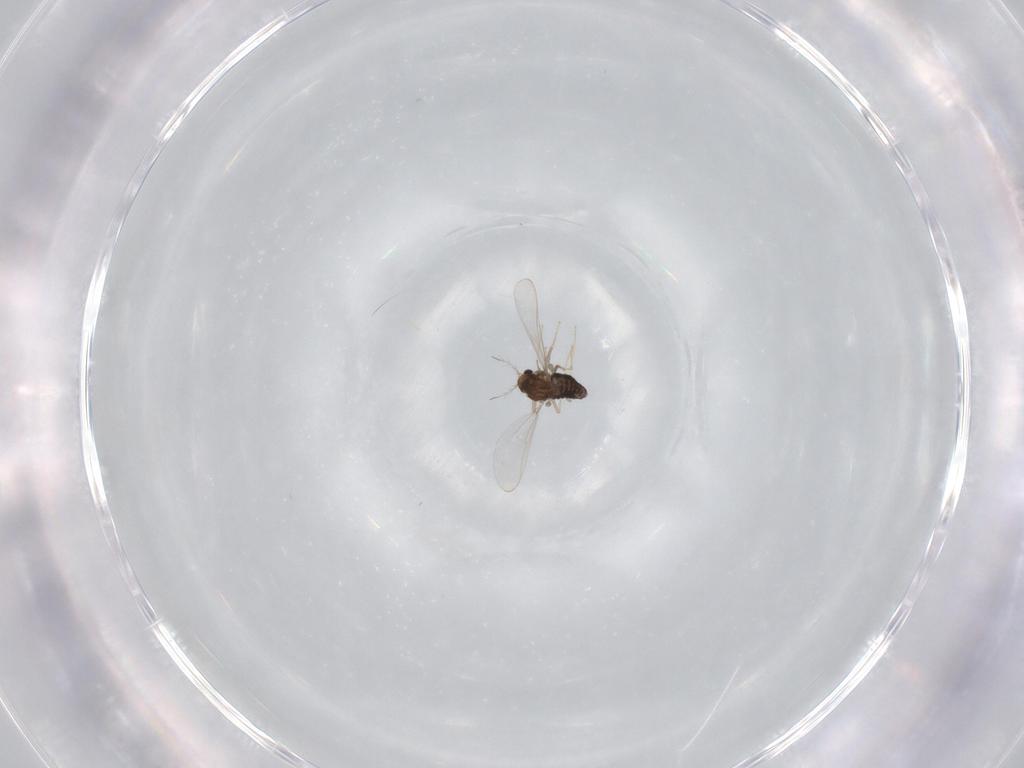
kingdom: Animalia
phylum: Arthropoda
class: Insecta
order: Diptera
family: Chironomidae
